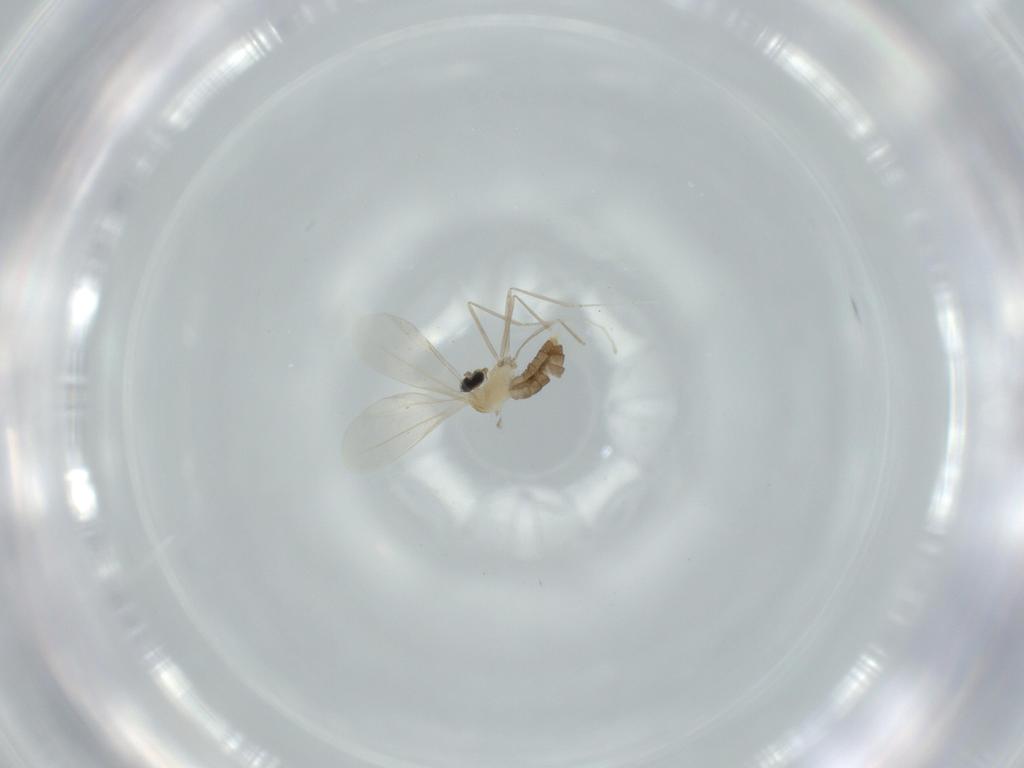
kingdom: Animalia
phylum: Arthropoda
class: Insecta
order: Diptera
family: Cecidomyiidae
